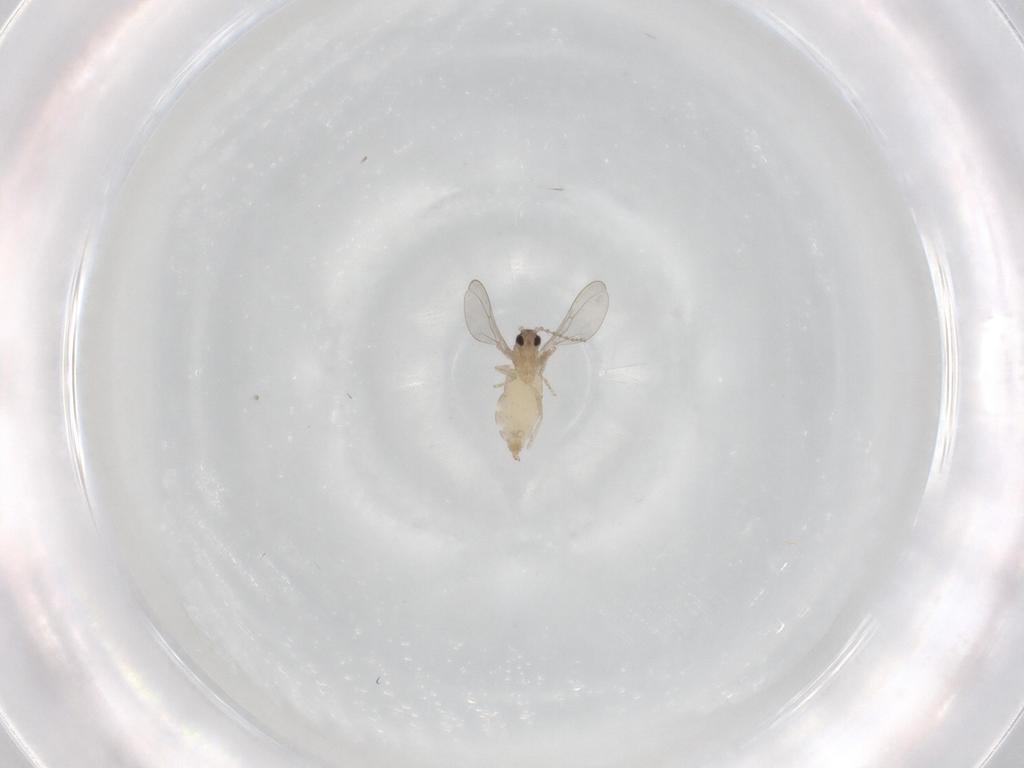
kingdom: Animalia
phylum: Arthropoda
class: Insecta
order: Diptera
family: Cecidomyiidae
